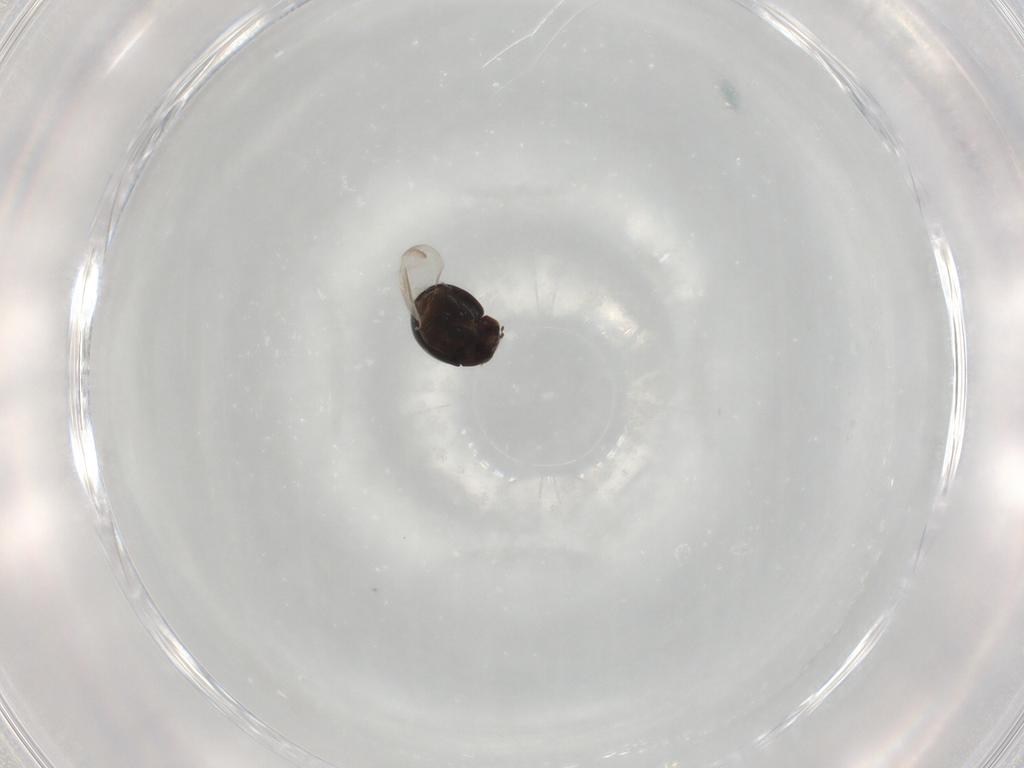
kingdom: Animalia
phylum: Arthropoda
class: Insecta
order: Coleoptera
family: Coccinellidae
